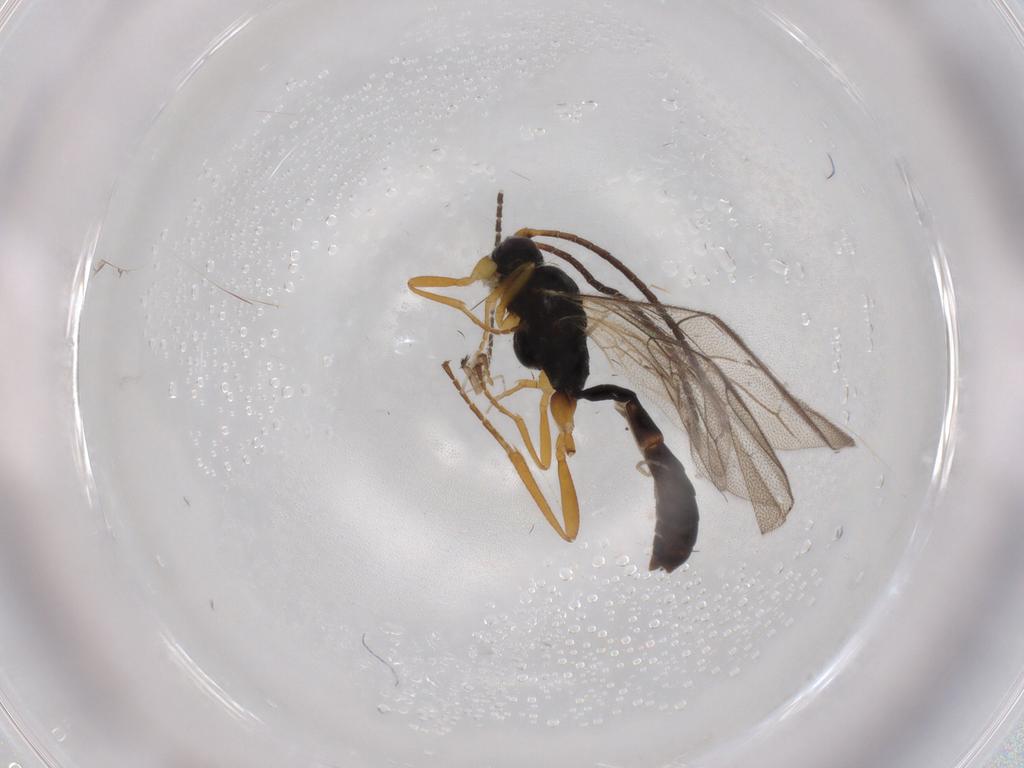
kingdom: Animalia
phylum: Arthropoda
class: Insecta
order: Hymenoptera
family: Ichneumonidae
